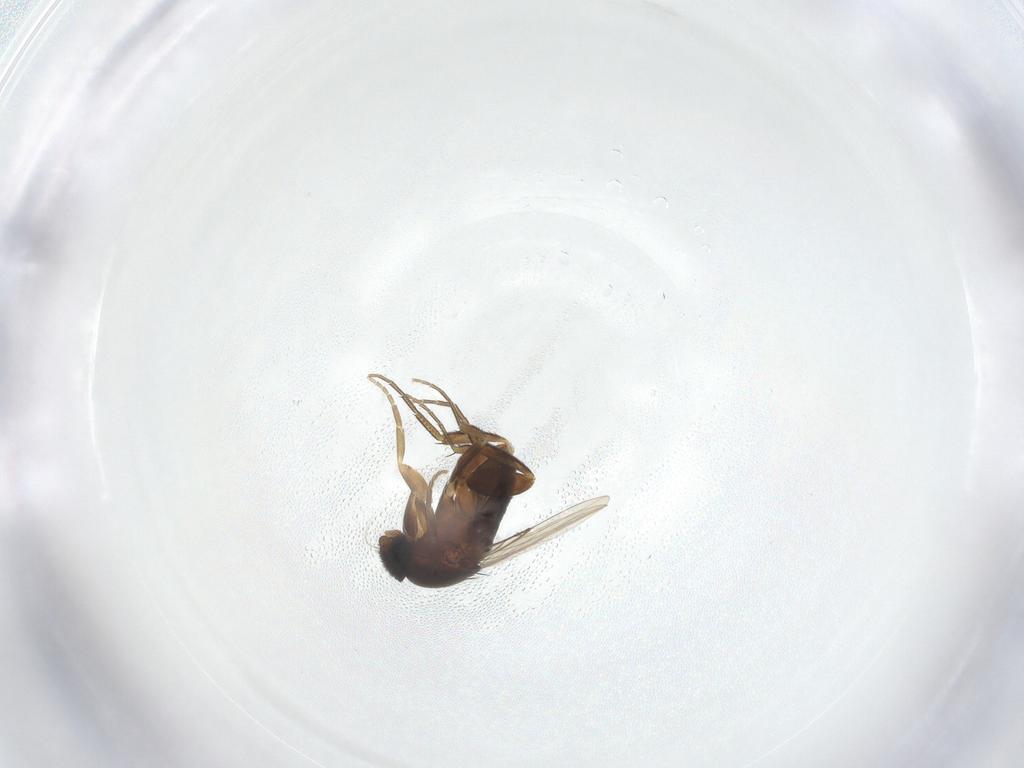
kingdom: Animalia
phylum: Arthropoda
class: Insecta
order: Diptera
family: Phoridae
